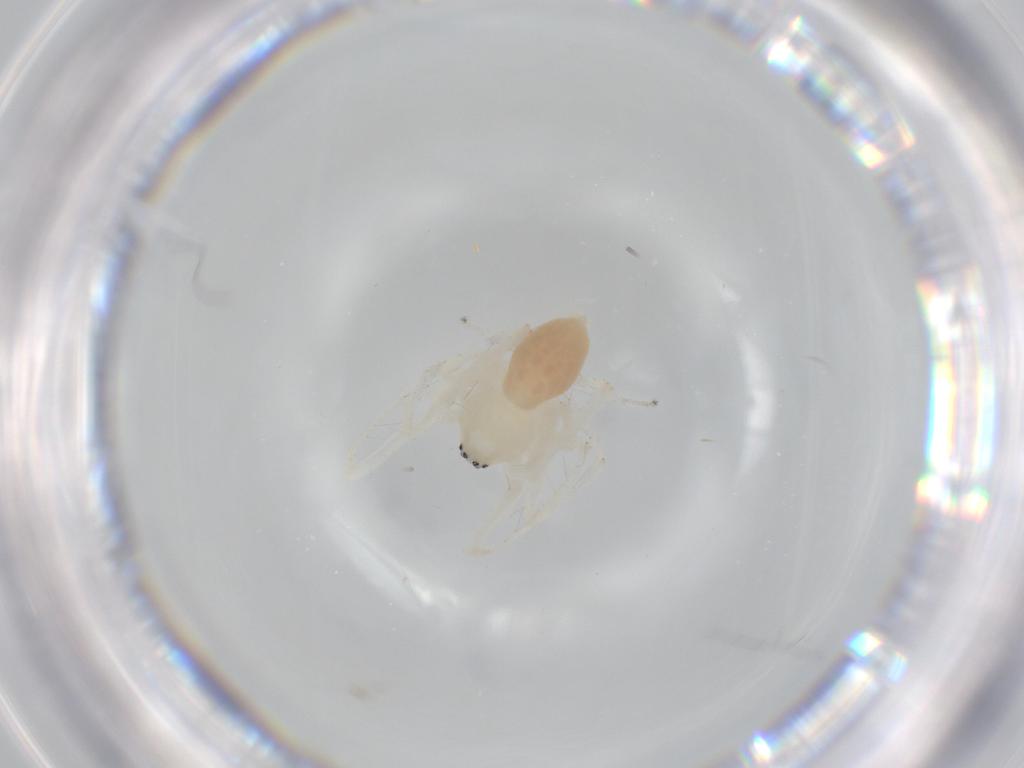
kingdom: Animalia
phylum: Arthropoda
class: Arachnida
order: Araneae
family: Anyphaenidae
